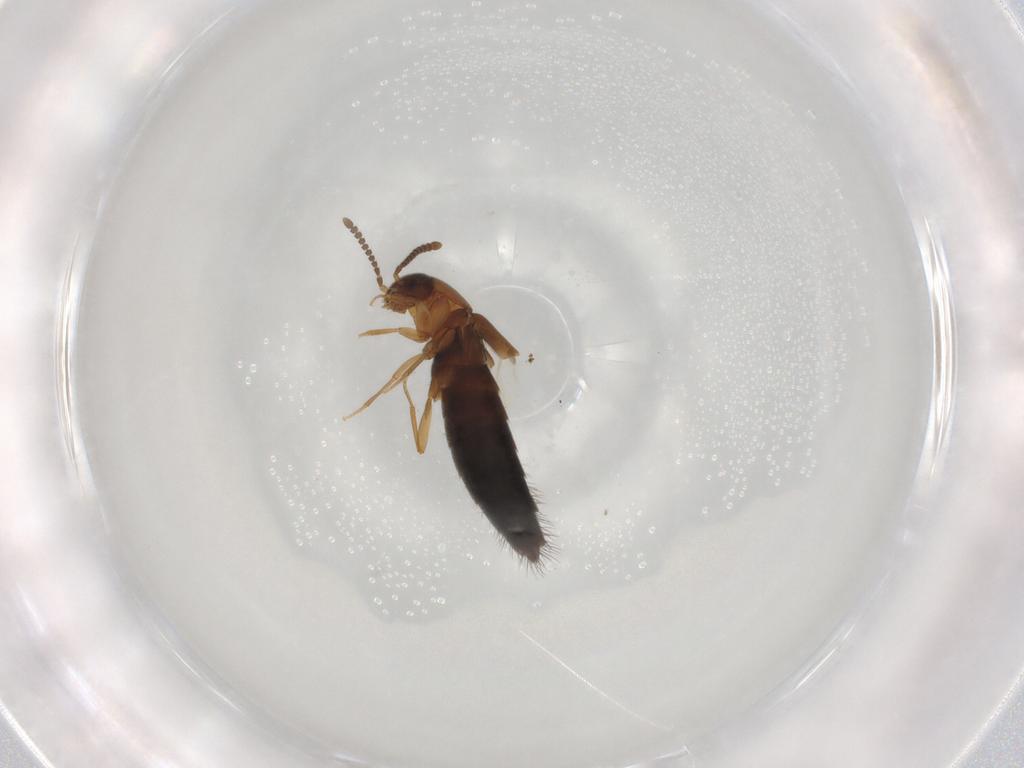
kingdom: Animalia
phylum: Arthropoda
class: Insecta
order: Coleoptera
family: Staphylinidae
